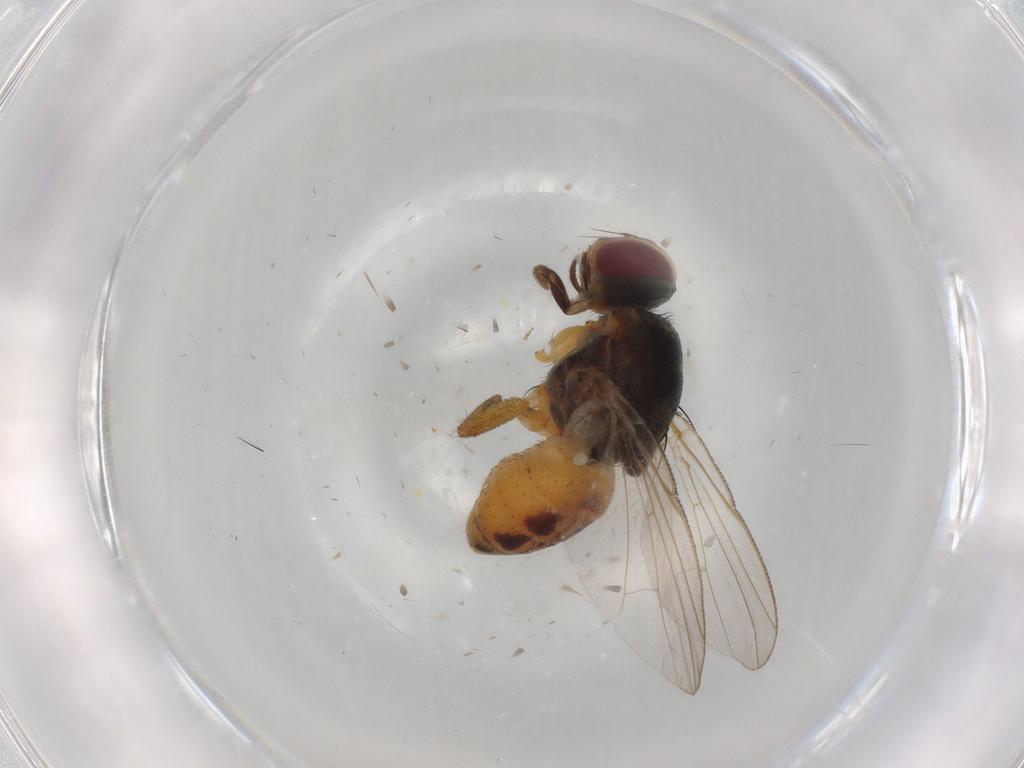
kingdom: Animalia
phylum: Arthropoda
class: Insecta
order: Diptera
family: Muscidae
